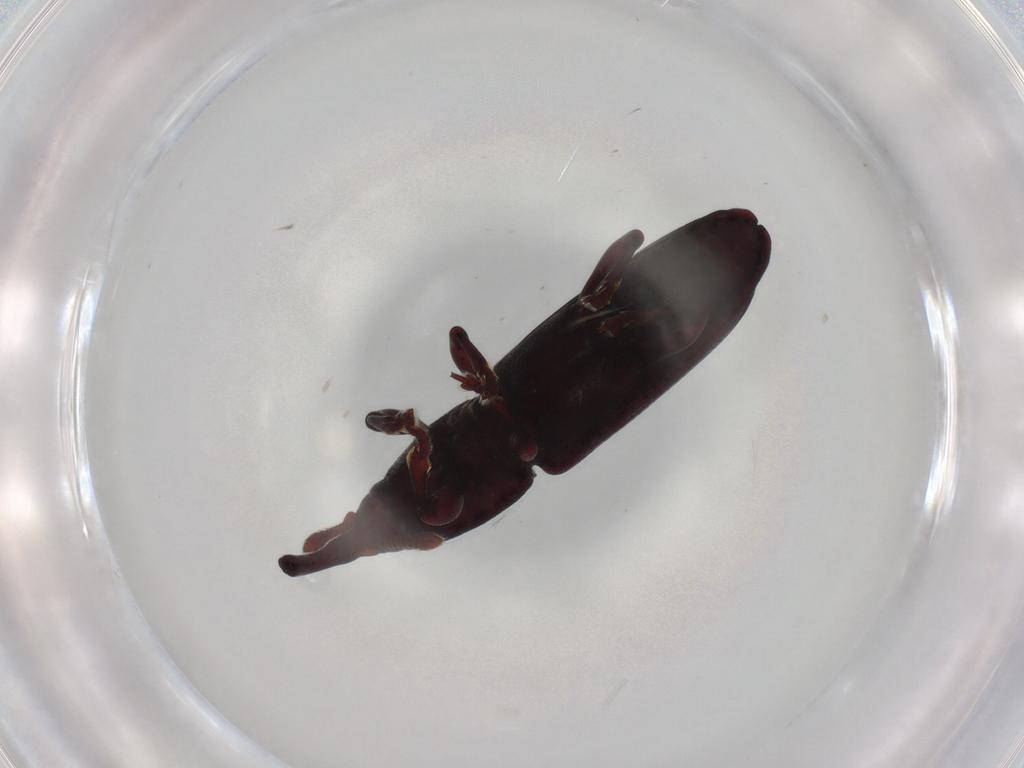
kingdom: Animalia
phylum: Arthropoda
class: Insecta
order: Coleoptera
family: Curculionidae
